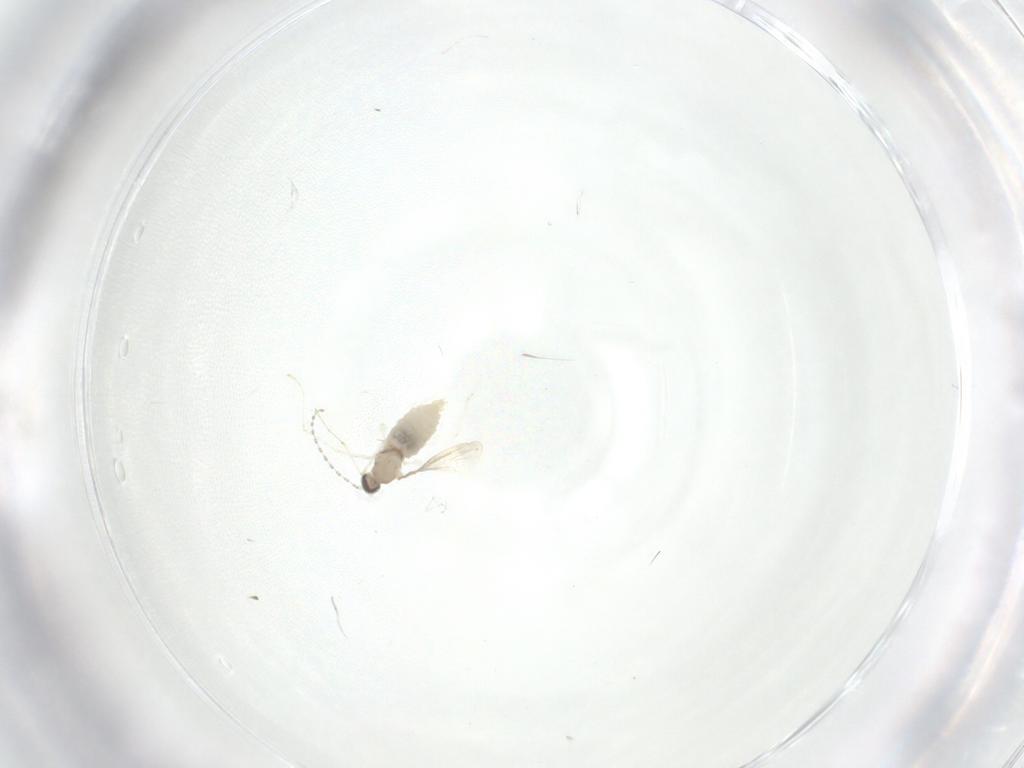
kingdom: Animalia
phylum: Arthropoda
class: Insecta
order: Diptera
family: Cecidomyiidae
